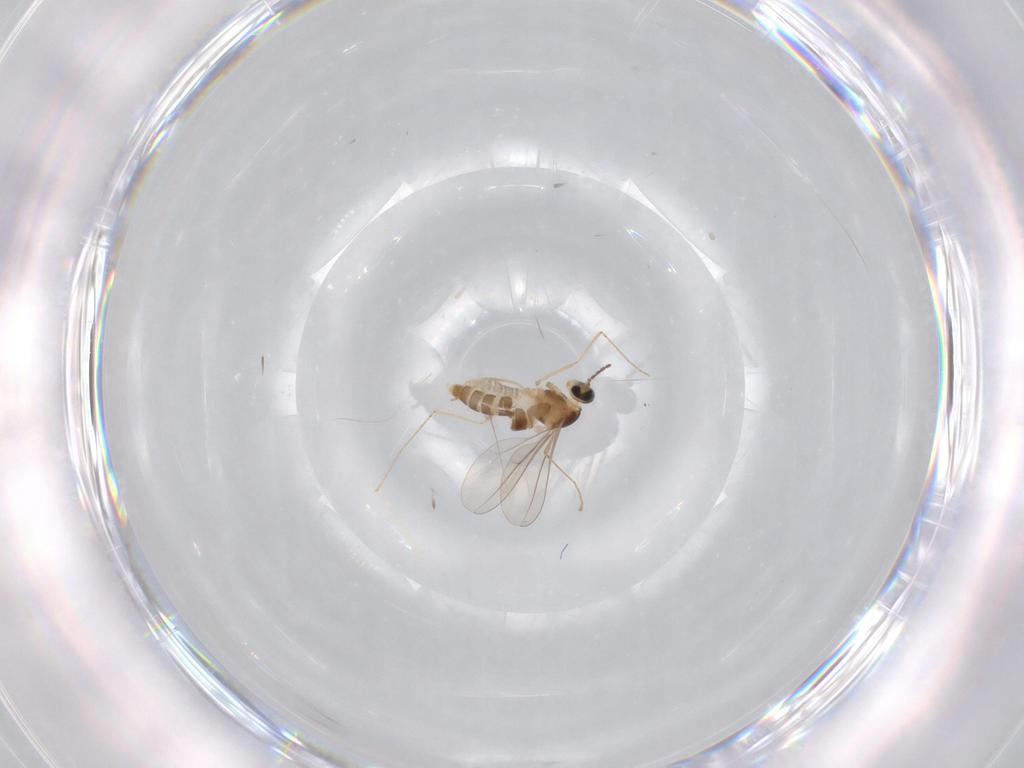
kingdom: Animalia
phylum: Arthropoda
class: Insecta
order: Diptera
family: Cecidomyiidae
